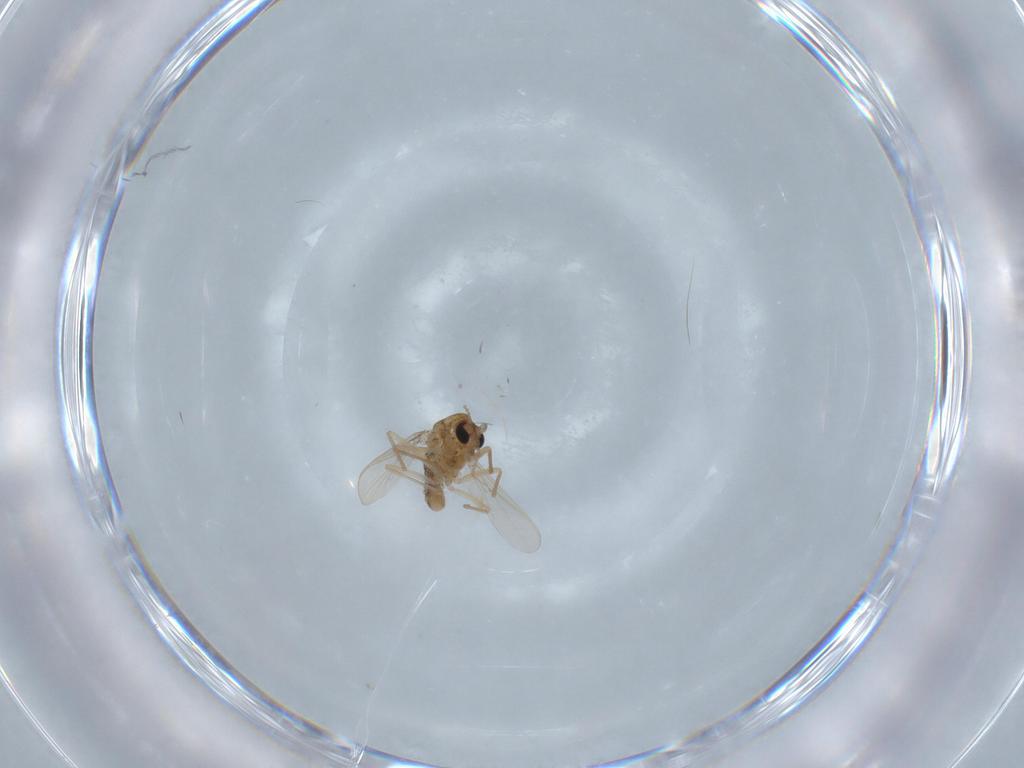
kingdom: Animalia
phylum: Arthropoda
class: Insecta
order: Diptera
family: Chironomidae
